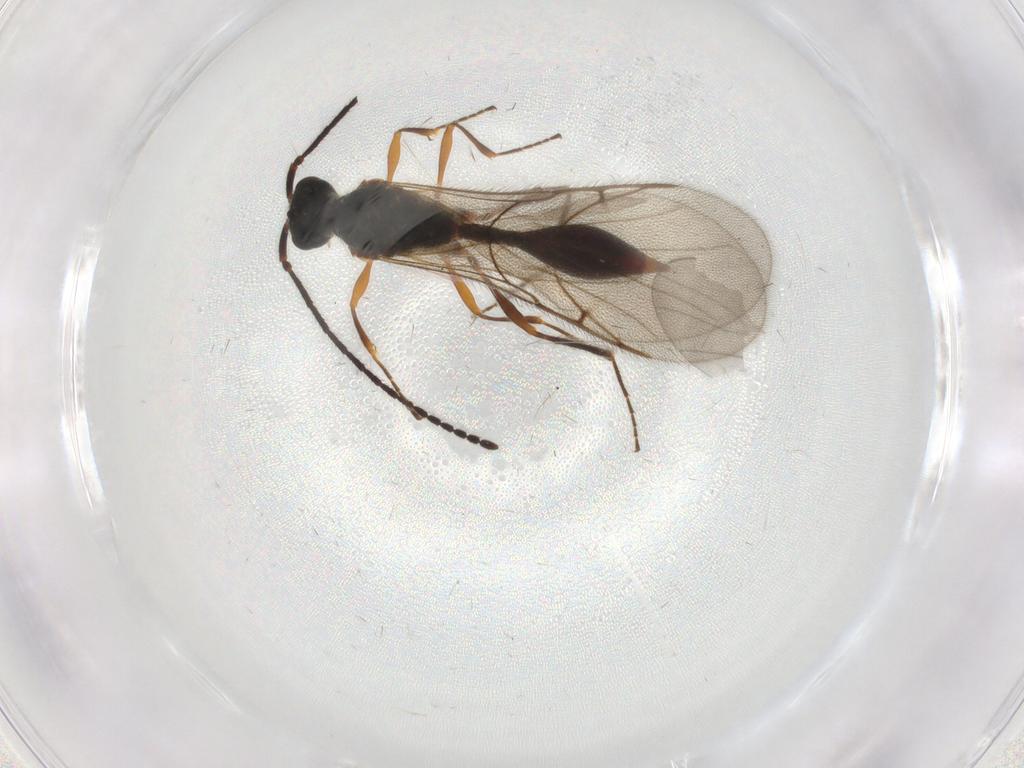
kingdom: Animalia
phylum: Arthropoda
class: Insecta
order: Hymenoptera
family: Diapriidae
